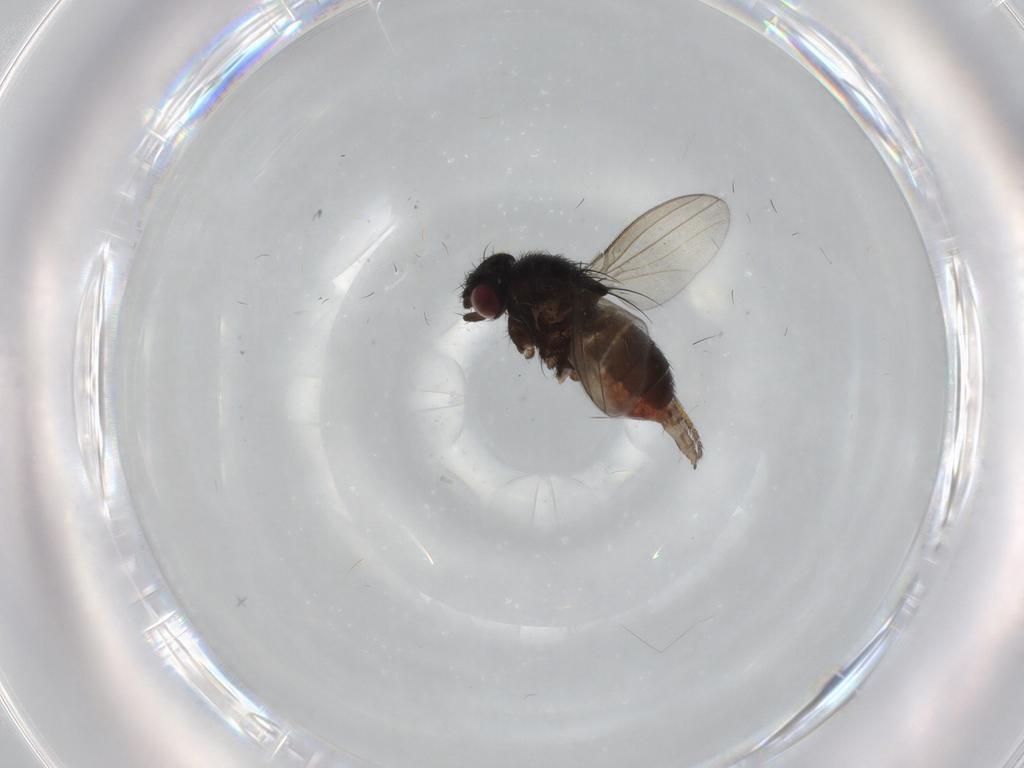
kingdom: Animalia
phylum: Arthropoda
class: Insecta
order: Diptera
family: Milichiidae
